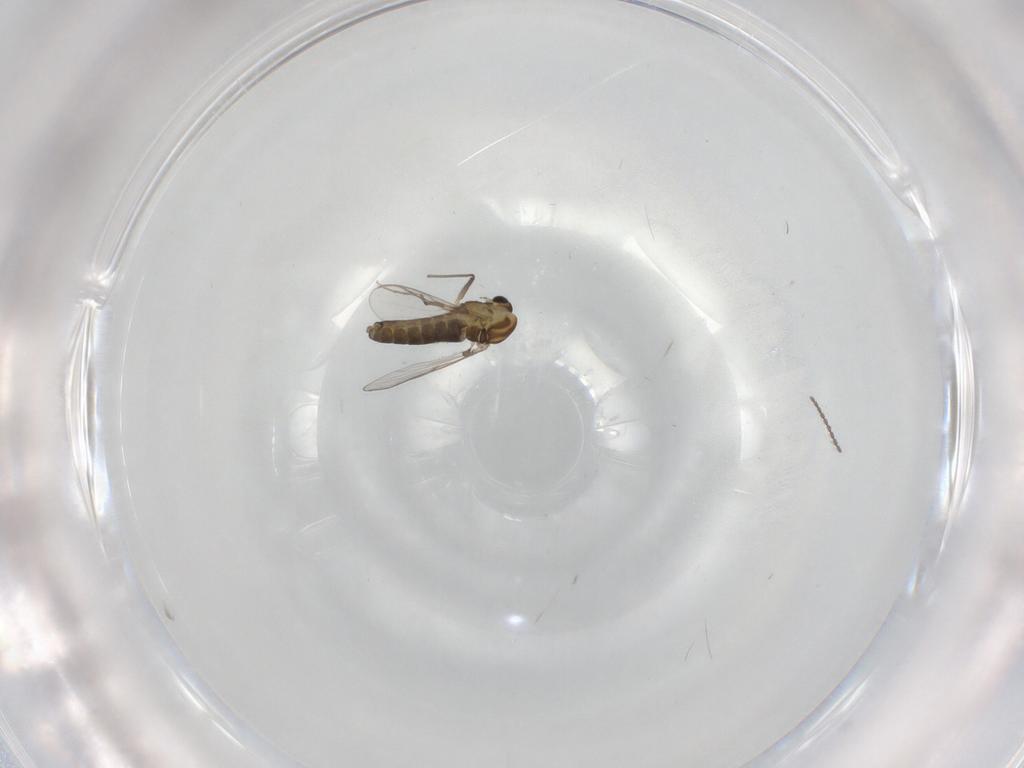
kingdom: Animalia
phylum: Arthropoda
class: Insecta
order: Diptera
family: Chironomidae
